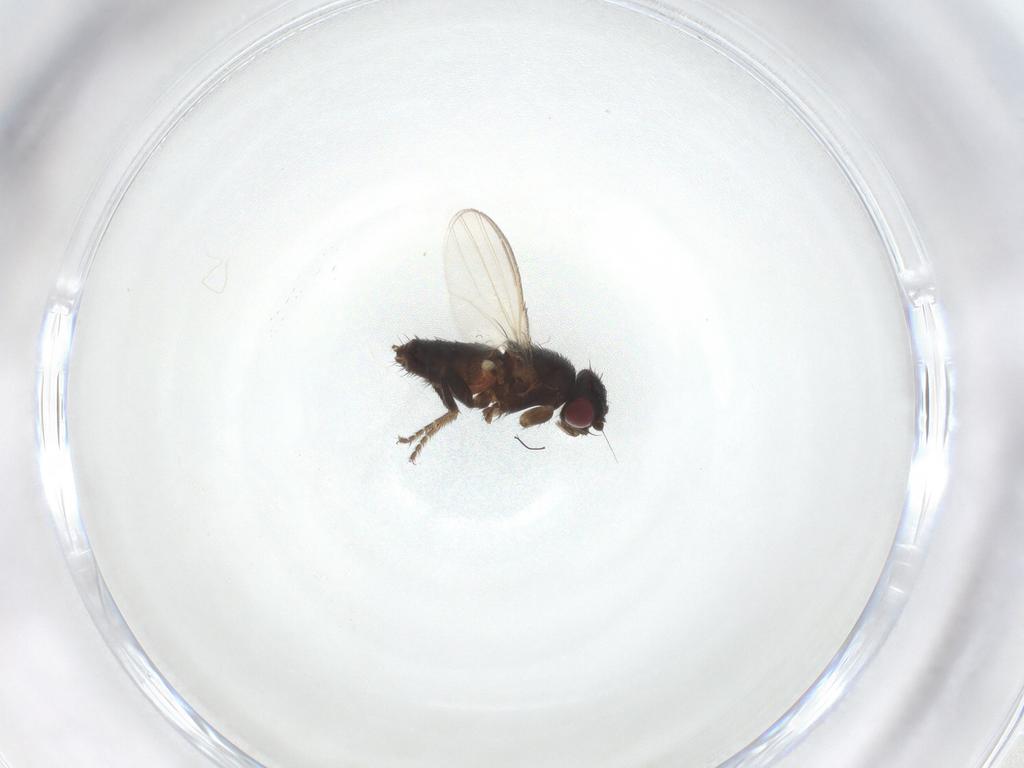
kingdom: Animalia
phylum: Arthropoda
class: Insecta
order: Diptera
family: Milichiidae
